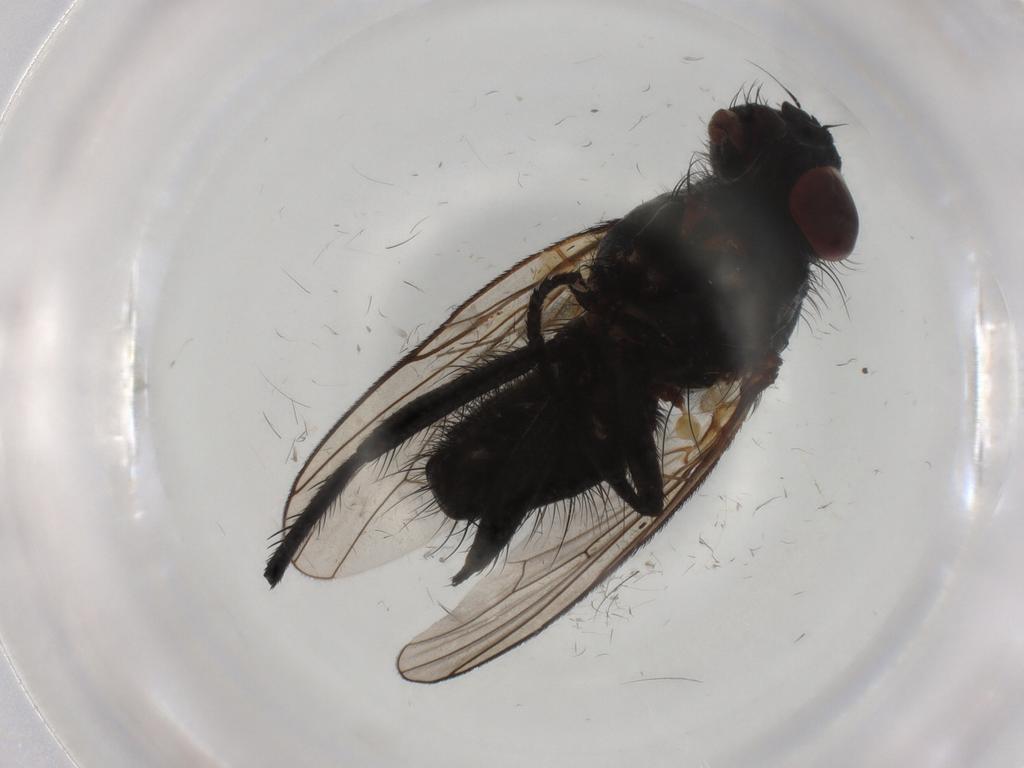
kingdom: Animalia
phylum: Arthropoda
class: Insecta
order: Diptera
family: Anthomyiidae
